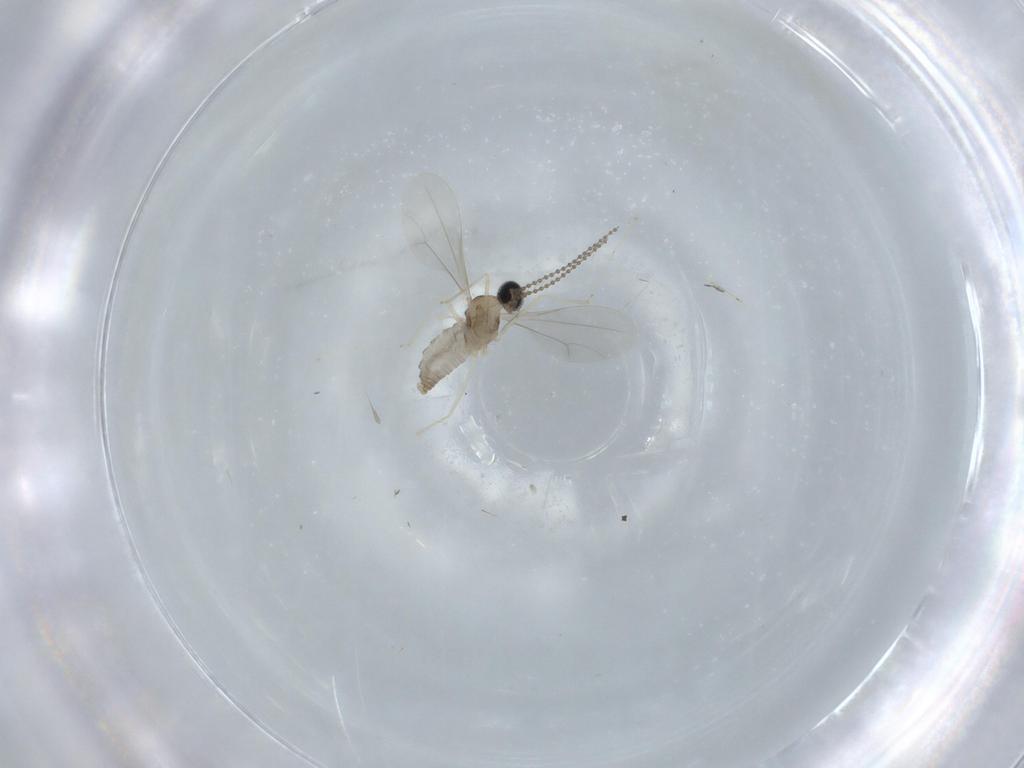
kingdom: Animalia
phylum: Arthropoda
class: Insecta
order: Diptera
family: Cecidomyiidae
